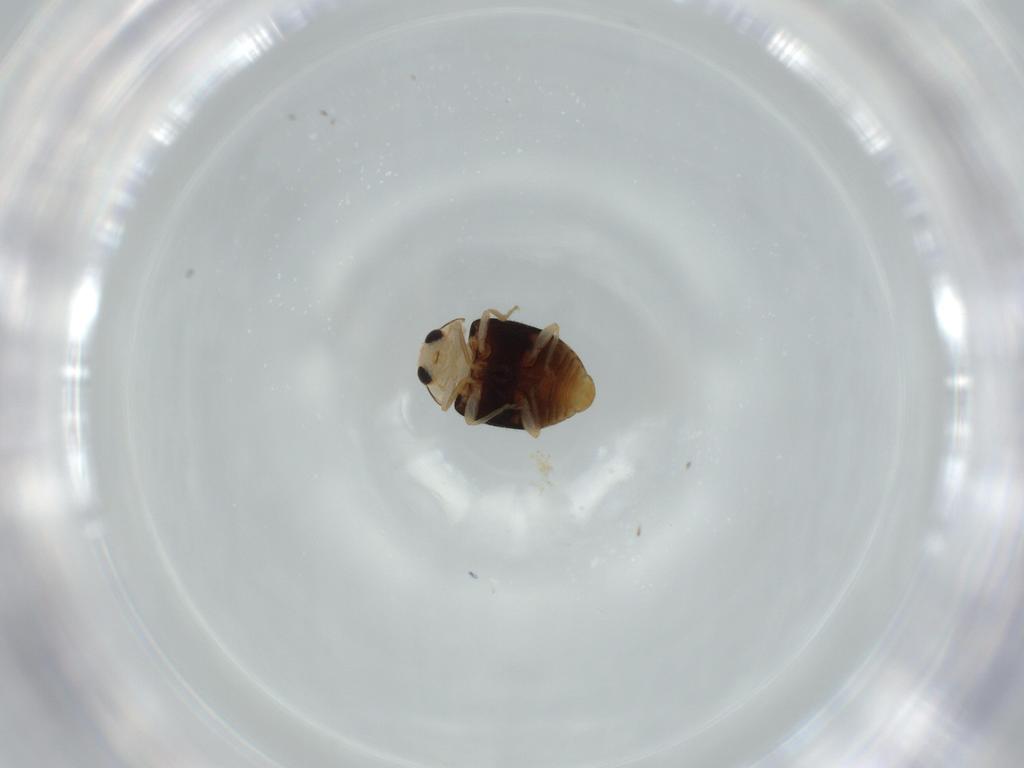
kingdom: Animalia
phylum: Arthropoda
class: Insecta
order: Coleoptera
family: Coccinellidae
